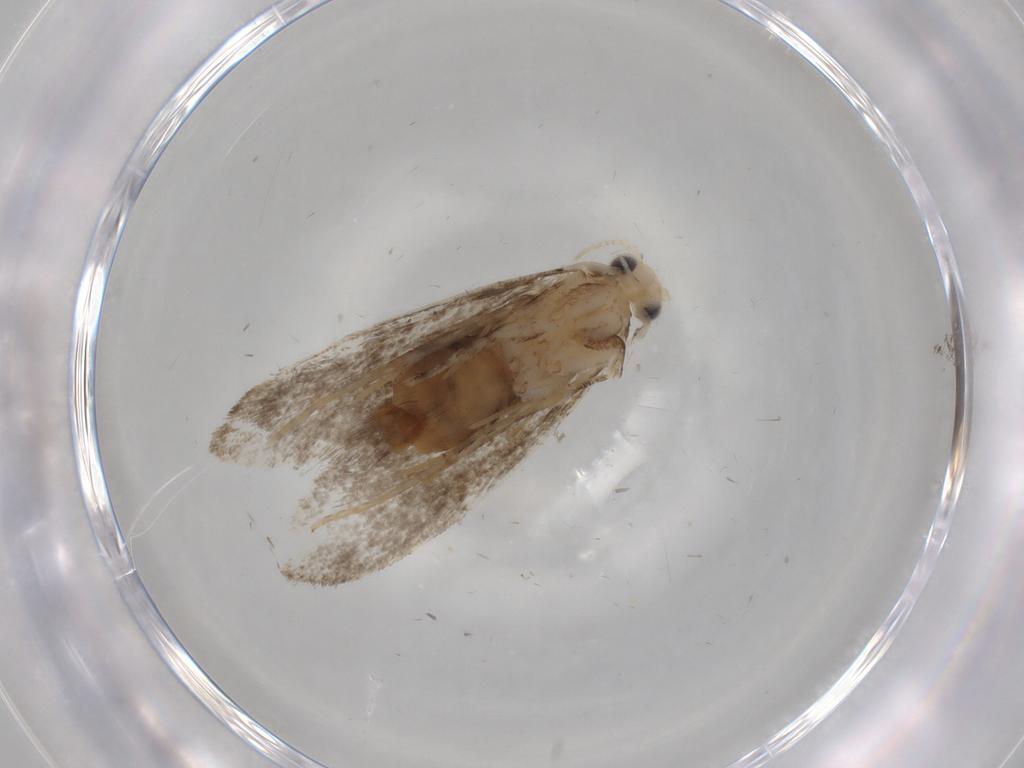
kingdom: Animalia
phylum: Arthropoda
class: Insecta
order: Lepidoptera
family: Tineidae
